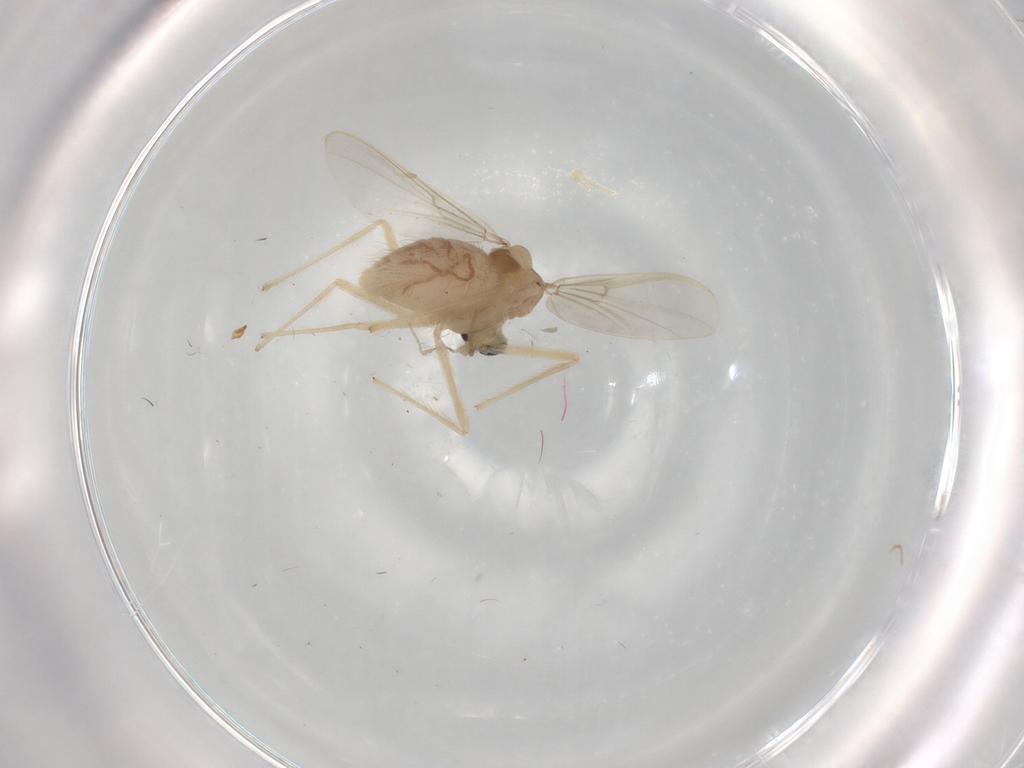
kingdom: Animalia
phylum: Arthropoda
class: Insecta
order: Diptera
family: Chironomidae
